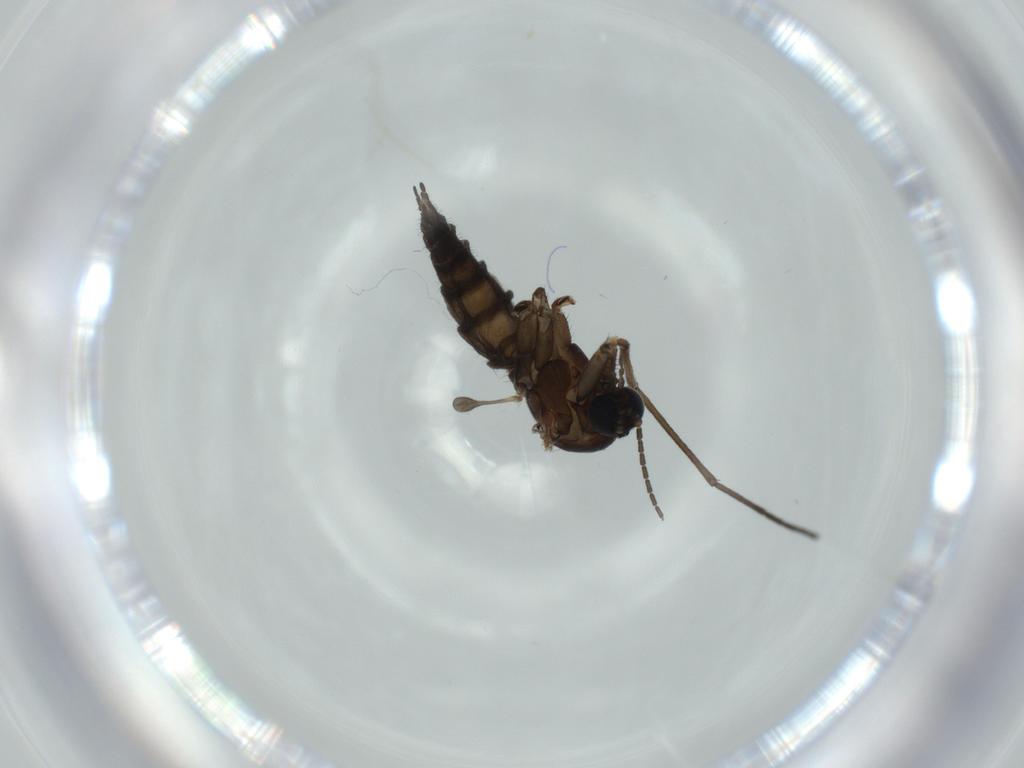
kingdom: Animalia
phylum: Arthropoda
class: Insecta
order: Diptera
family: Sciaridae
